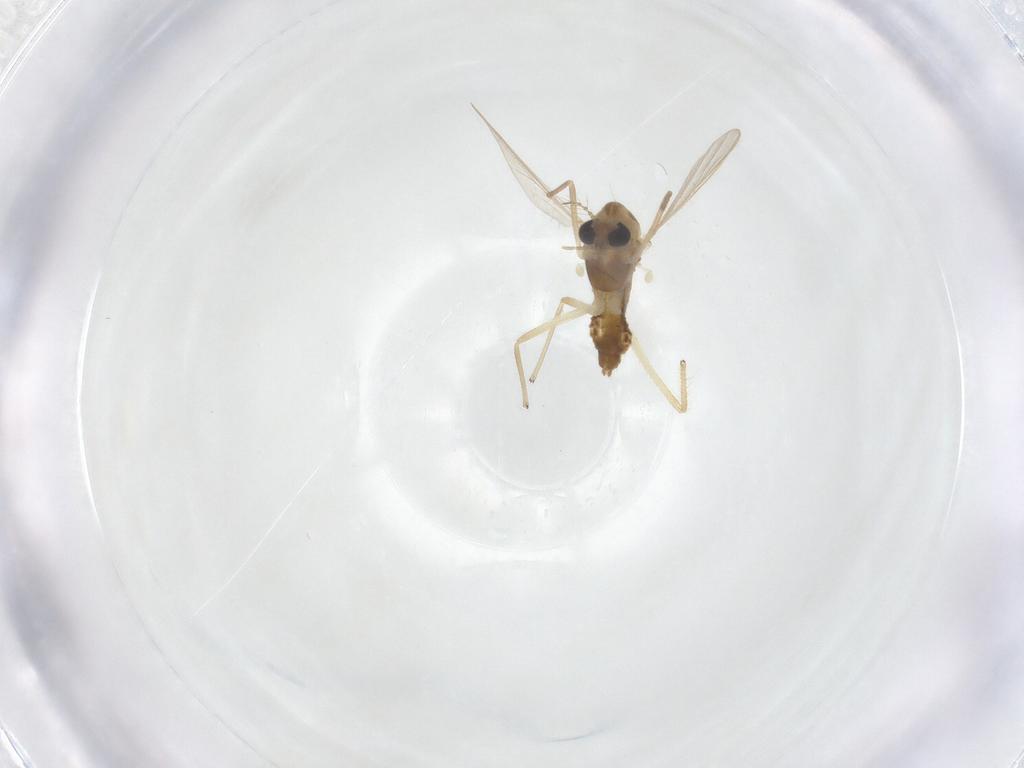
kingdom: Animalia
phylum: Arthropoda
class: Insecta
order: Diptera
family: Chironomidae
